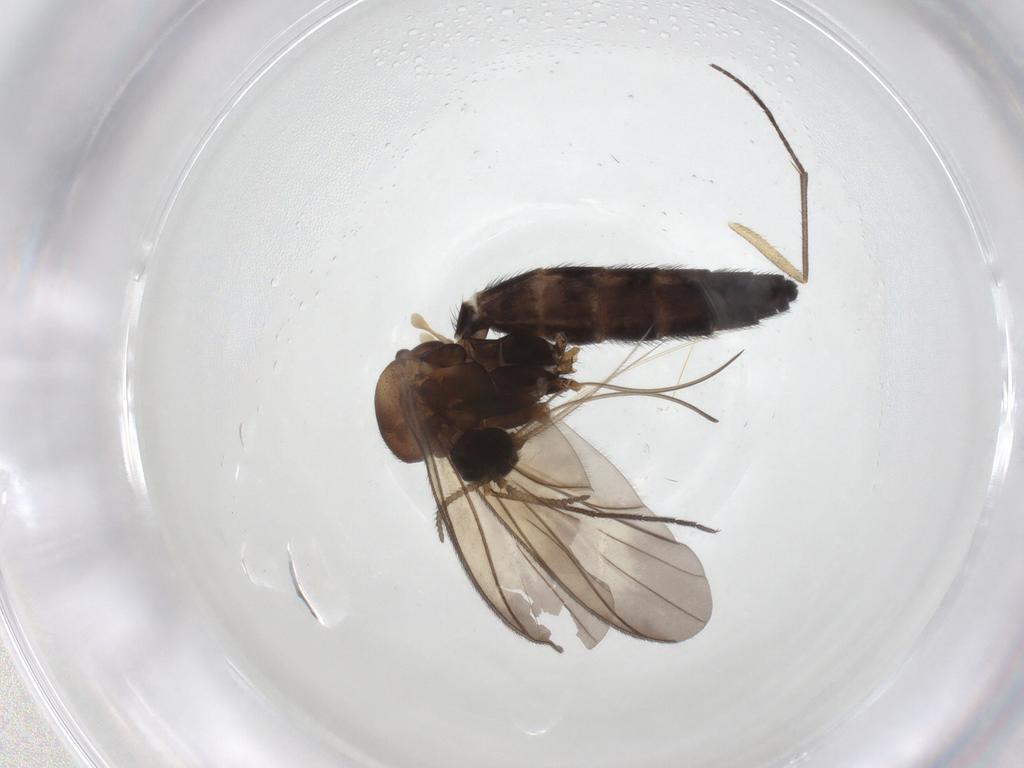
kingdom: Animalia
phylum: Arthropoda
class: Insecta
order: Diptera
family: Keroplatidae
